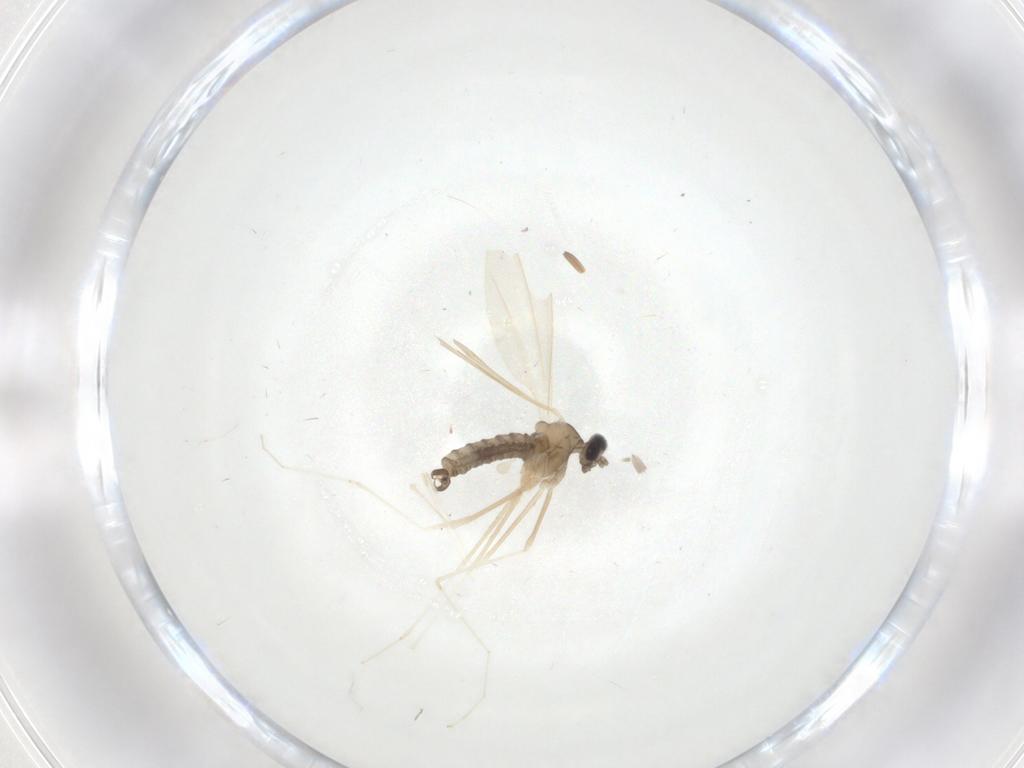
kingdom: Animalia
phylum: Arthropoda
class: Insecta
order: Diptera
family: Cecidomyiidae
